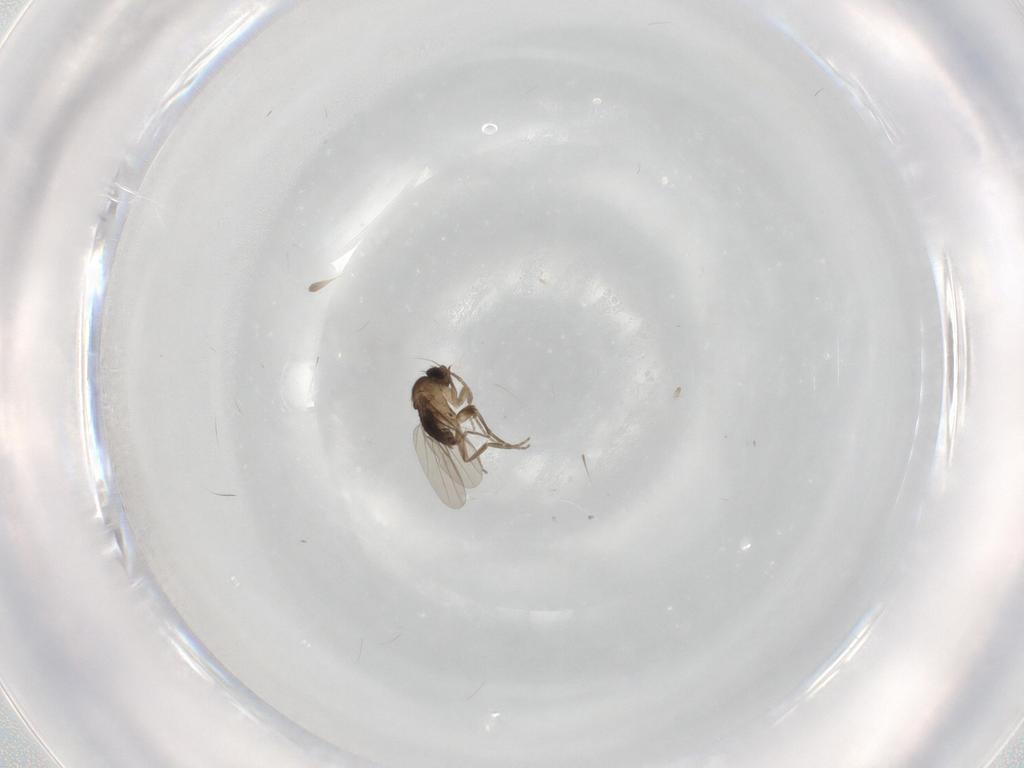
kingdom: Animalia
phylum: Arthropoda
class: Insecta
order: Diptera
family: Phoridae
